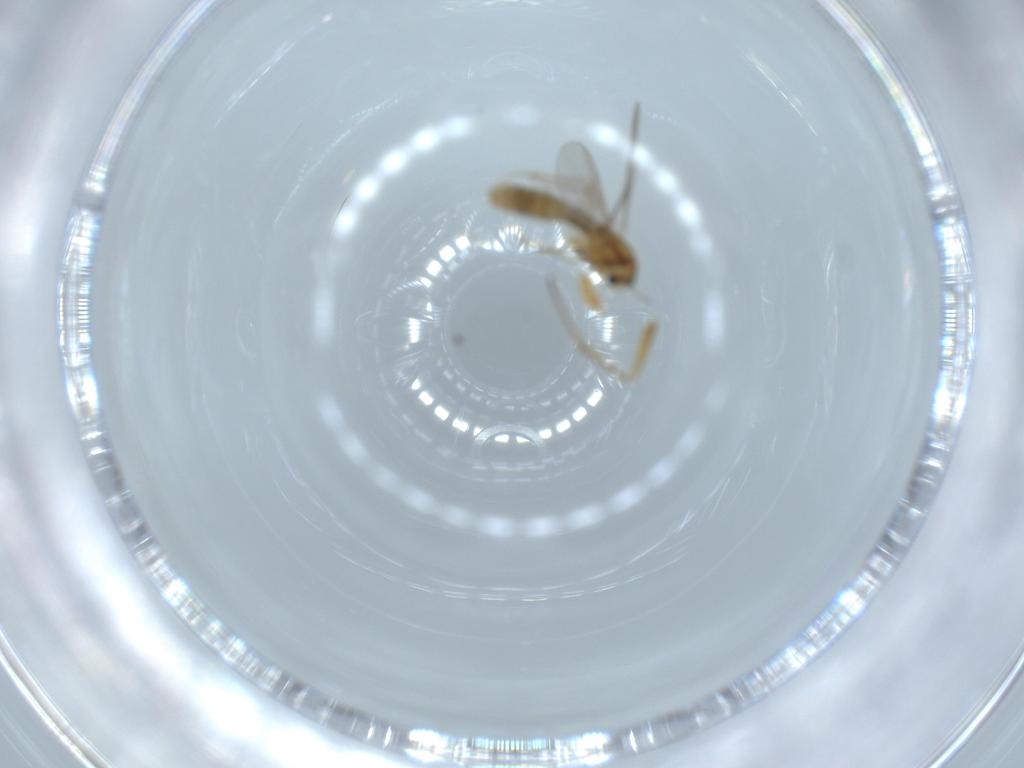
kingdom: Animalia
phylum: Arthropoda
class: Insecta
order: Diptera
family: Chironomidae
